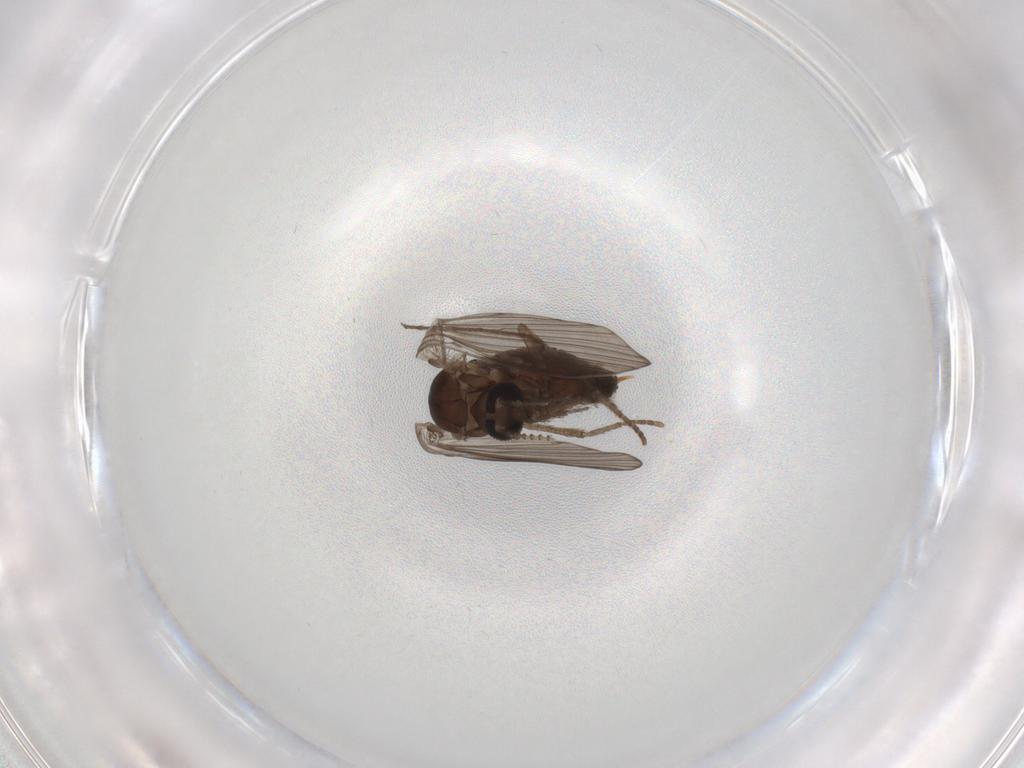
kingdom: Animalia
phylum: Arthropoda
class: Insecta
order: Diptera
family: Psychodidae
